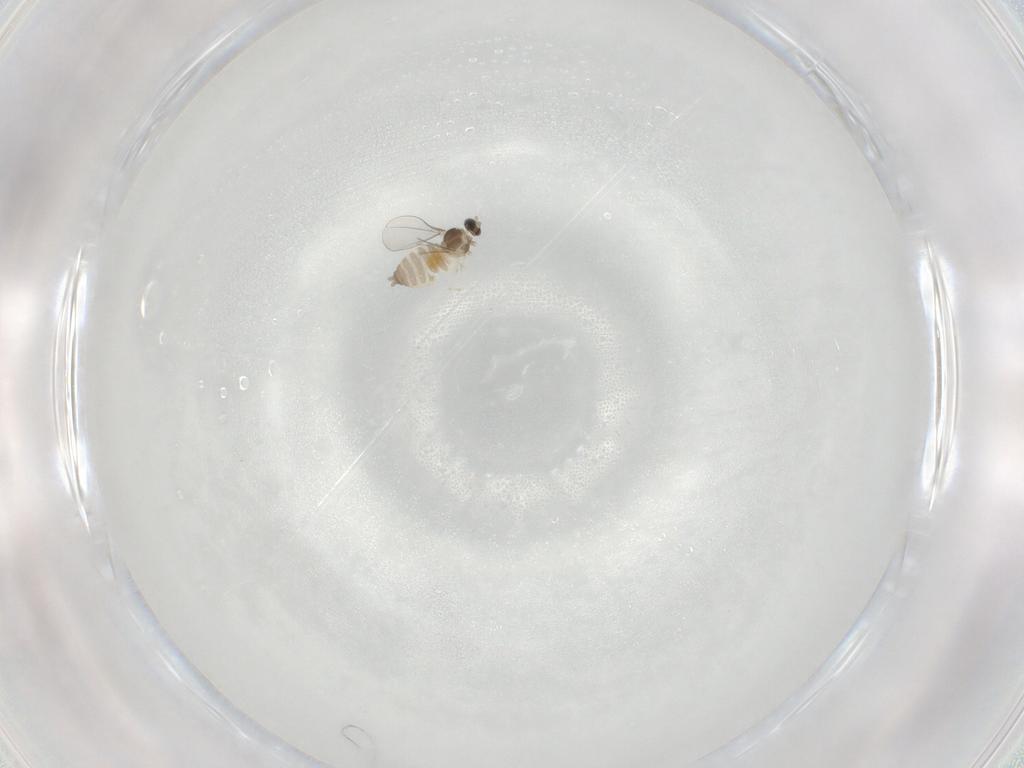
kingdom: Animalia
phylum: Arthropoda
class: Insecta
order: Diptera
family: Cecidomyiidae
